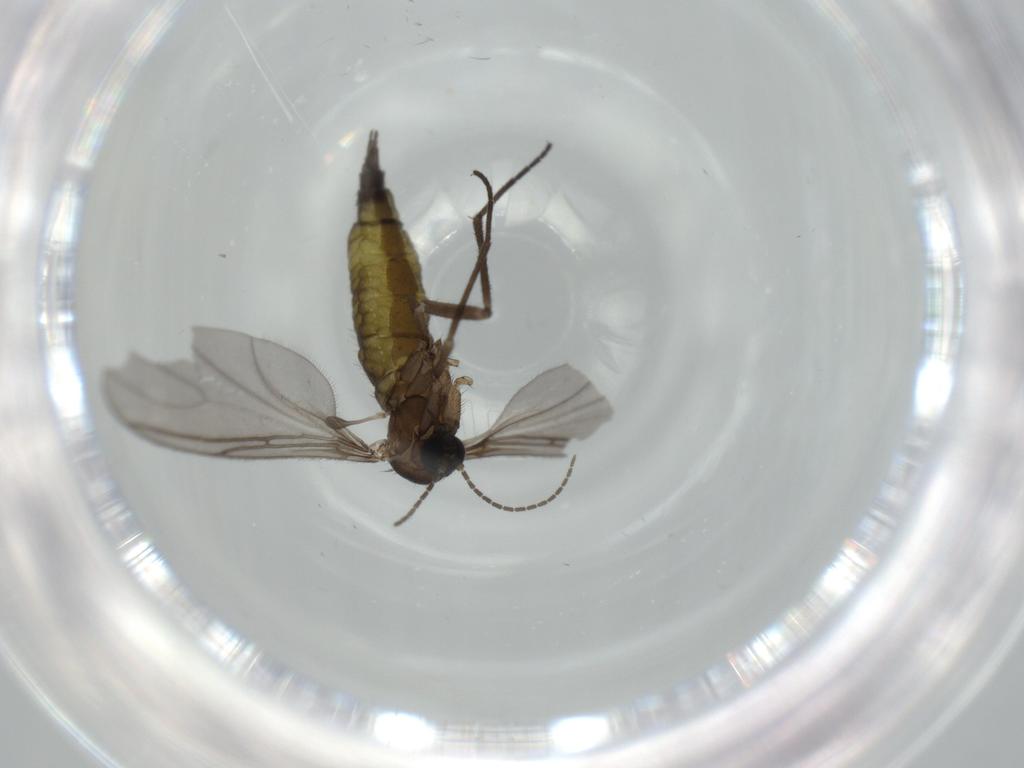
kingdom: Animalia
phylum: Arthropoda
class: Insecta
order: Diptera
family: Sciaridae
